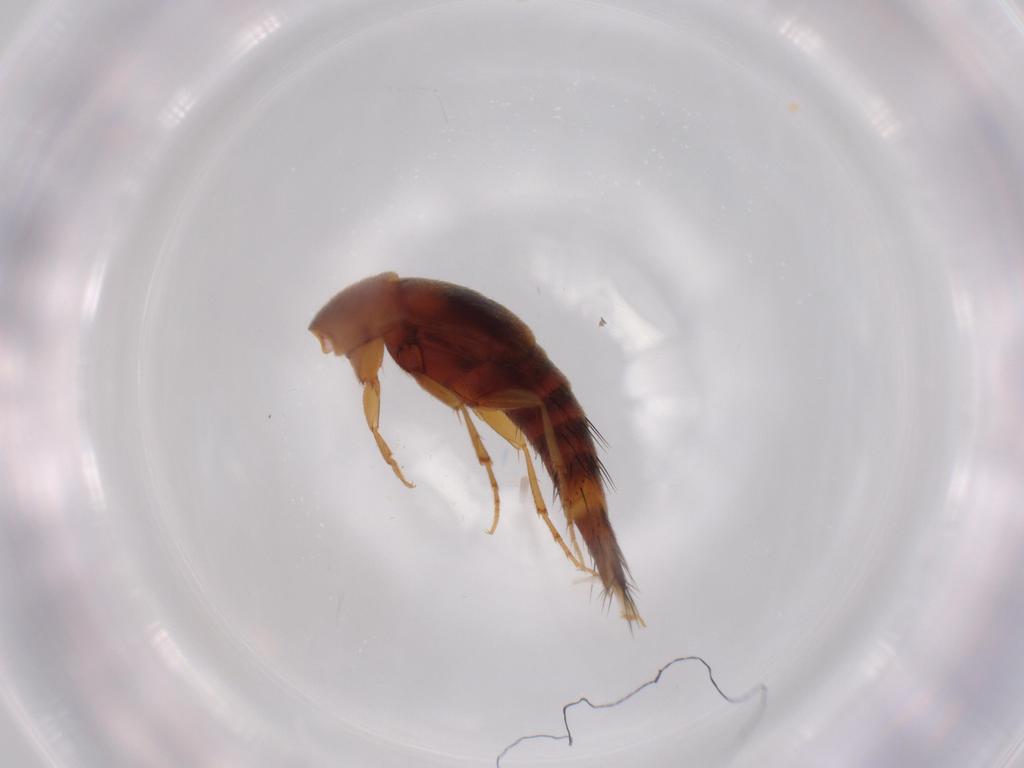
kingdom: Animalia
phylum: Arthropoda
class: Insecta
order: Coleoptera
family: Staphylinidae
